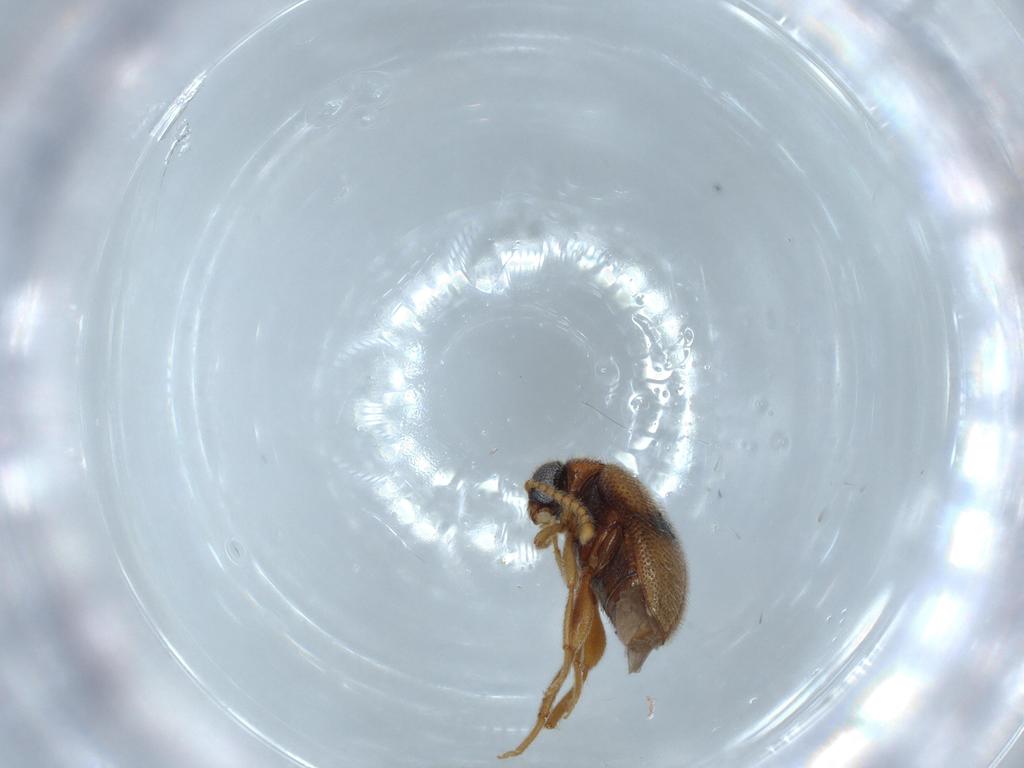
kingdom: Animalia
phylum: Arthropoda
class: Insecta
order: Coleoptera
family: Aderidae
